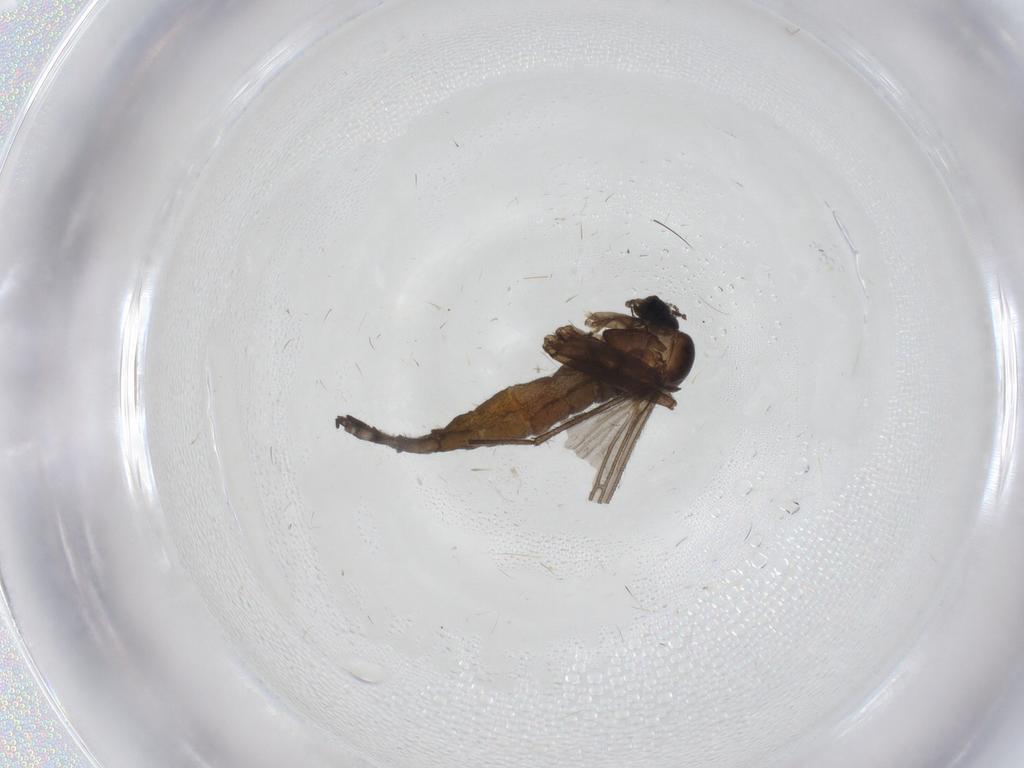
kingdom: Animalia
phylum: Arthropoda
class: Insecta
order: Diptera
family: Sciaridae
